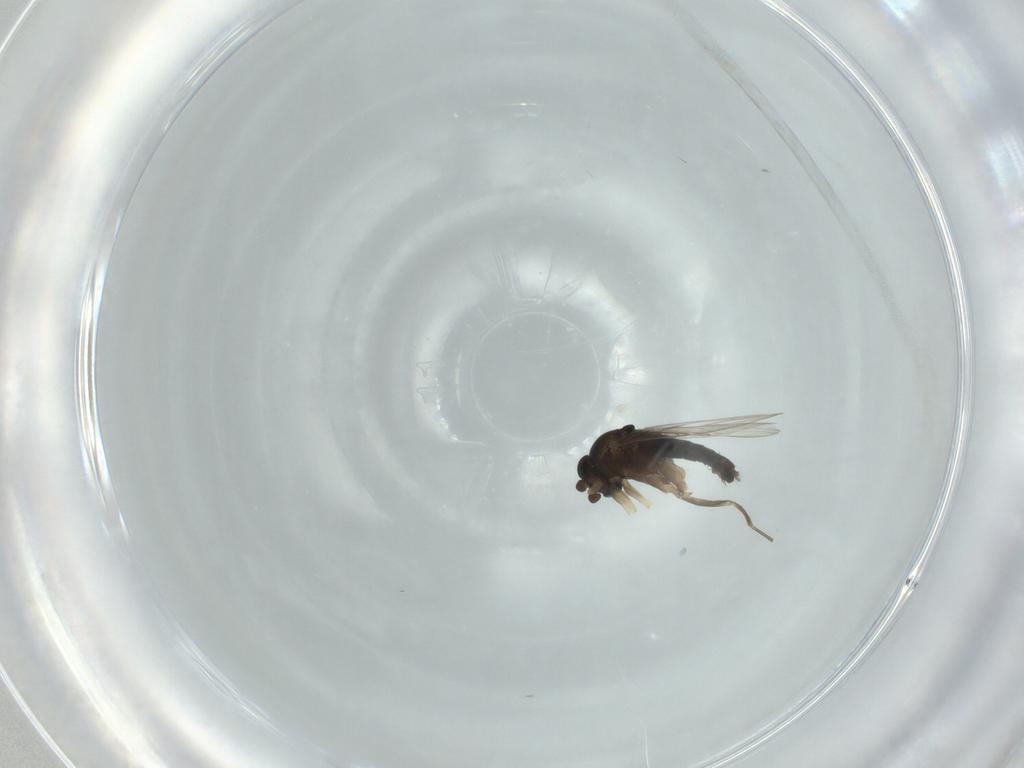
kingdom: Animalia
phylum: Arthropoda
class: Insecta
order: Diptera
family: Phoridae
